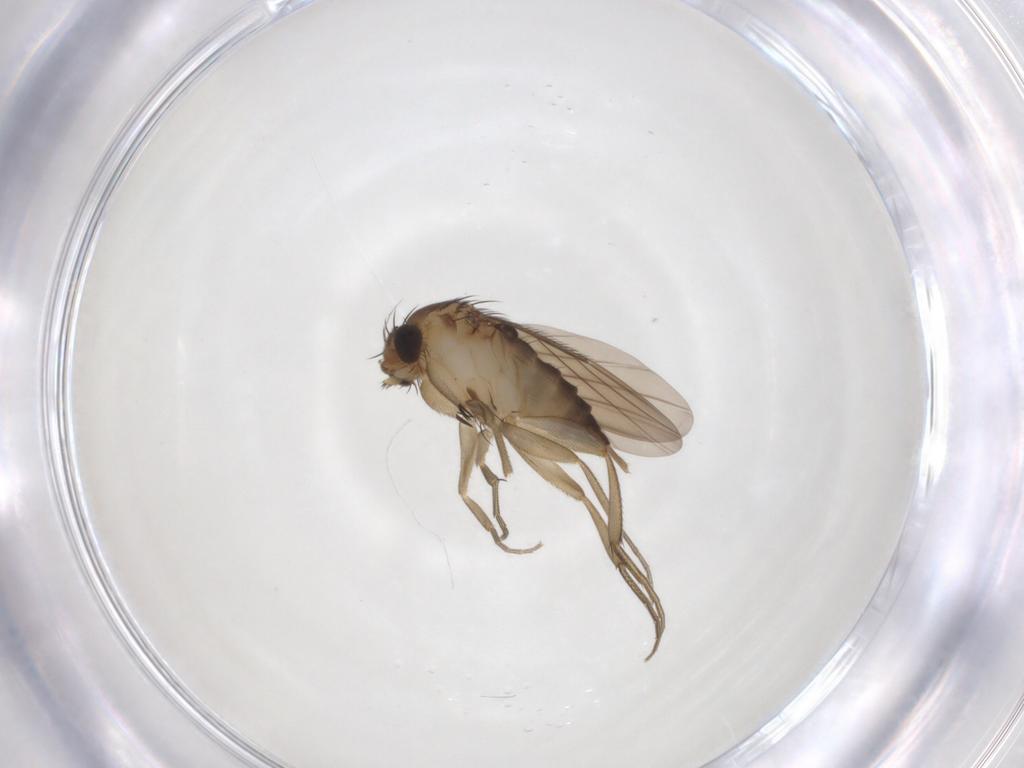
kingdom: Animalia
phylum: Arthropoda
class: Insecta
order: Diptera
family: Phoridae
